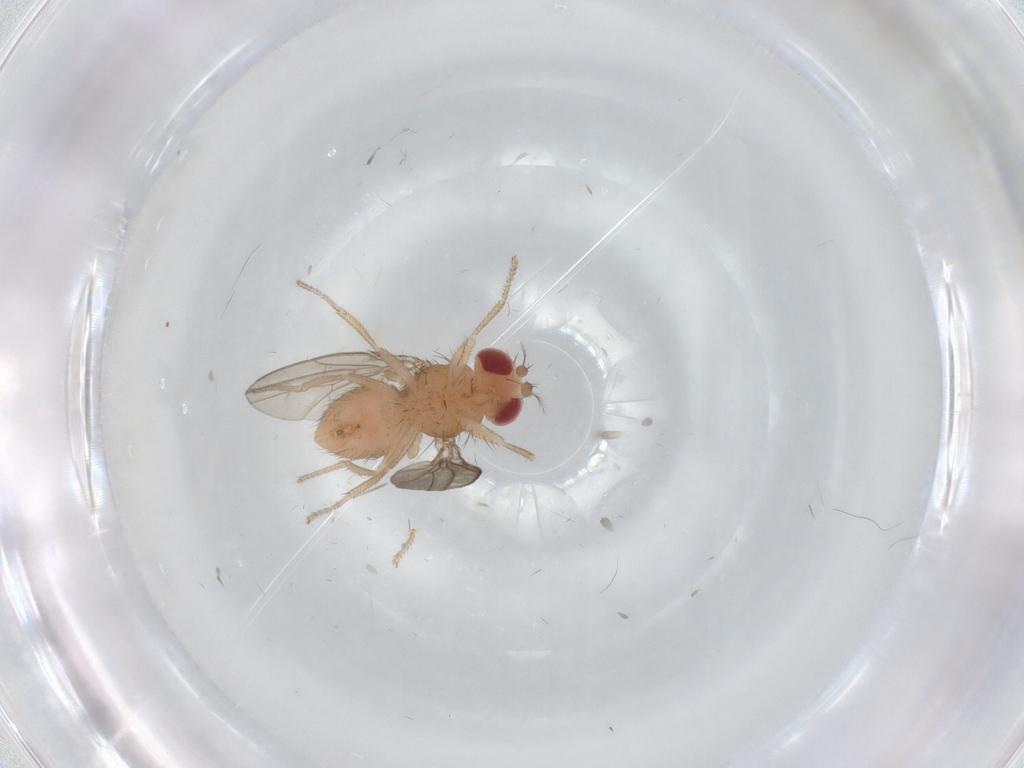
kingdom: Animalia
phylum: Arthropoda
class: Insecta
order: Diptera
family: Drosophilidae
